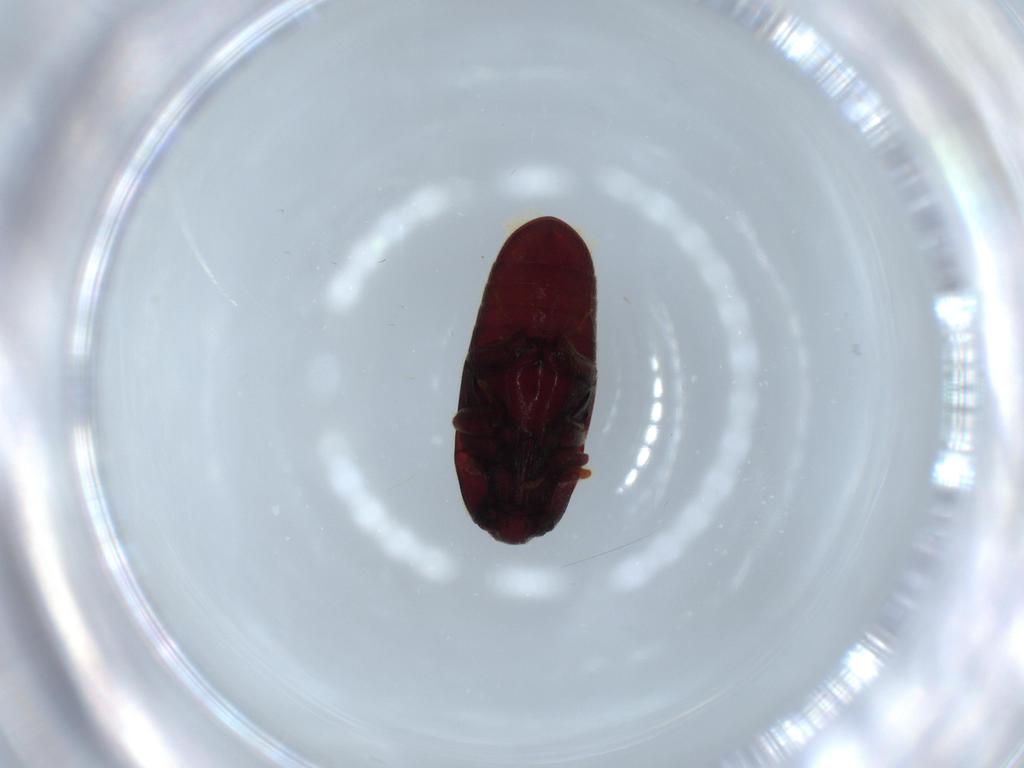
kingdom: Animalia
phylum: Arthropoda
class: Insecta
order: Coleoptera
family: Throscidae
